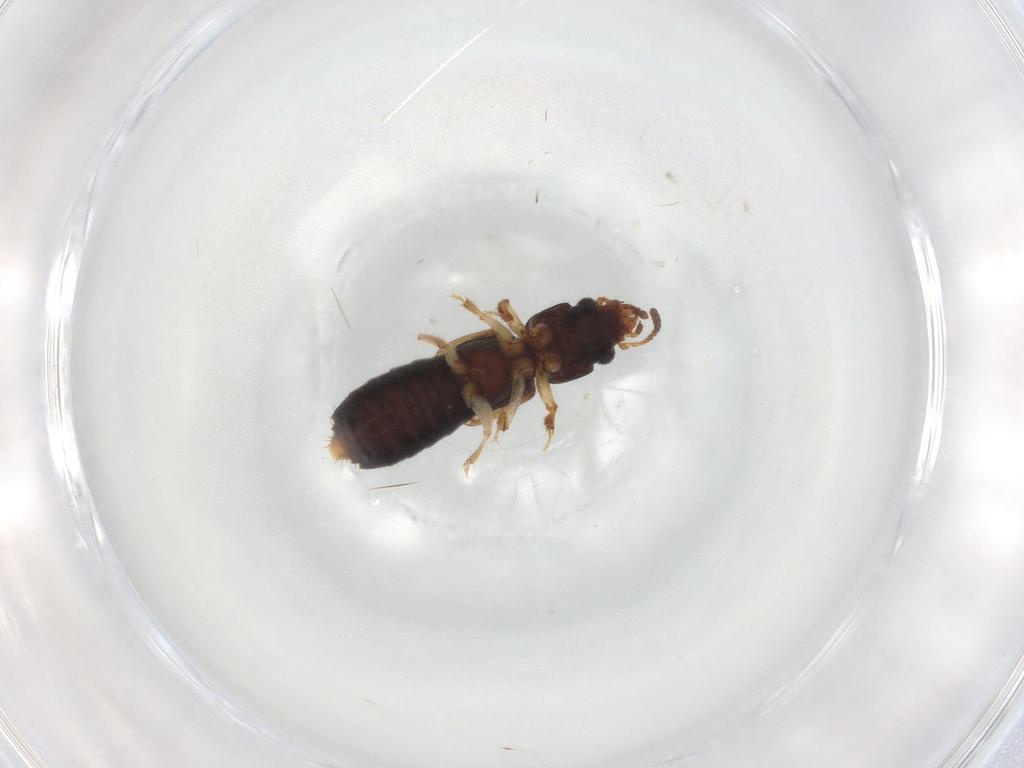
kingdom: Animalia
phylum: Arthropoda
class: Insecta
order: Coleoptera
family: Staphylinidae
